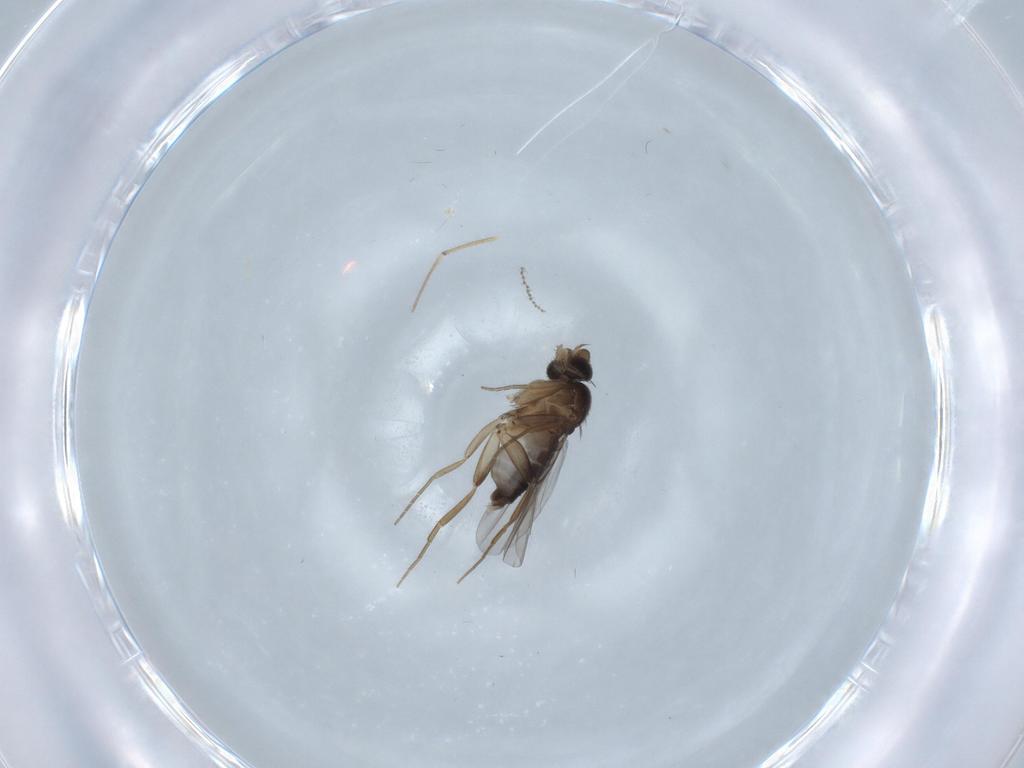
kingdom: Animalia
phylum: Arthropoda
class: Insecta
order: Diptera
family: Phoridae
